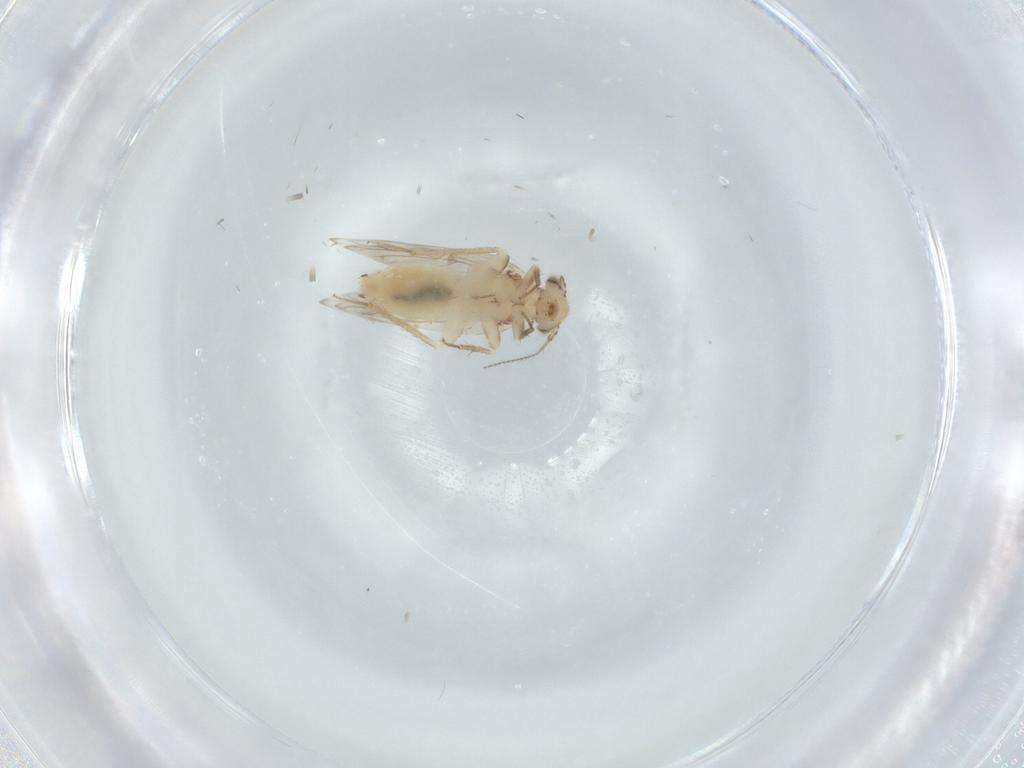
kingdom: Animalia
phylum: Arthropoda
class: Insecta
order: Psocodea
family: Lepidopsocidae
